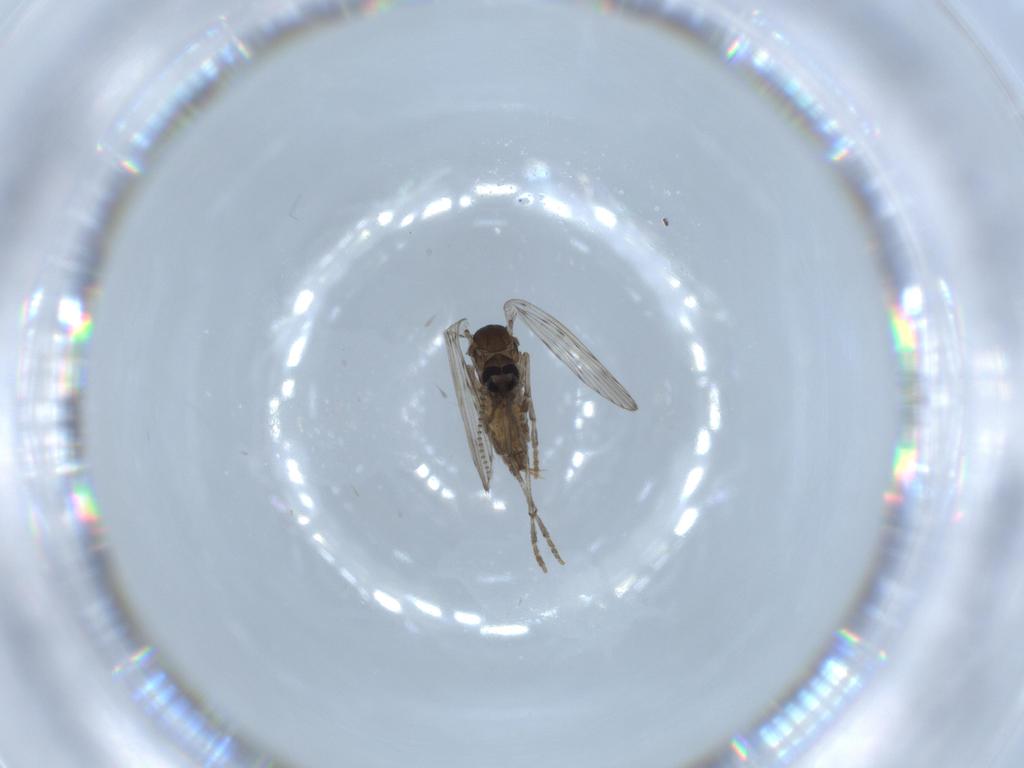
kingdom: Animalia
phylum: Arthropoda
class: Insecta
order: Diptera
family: Psychodidae
